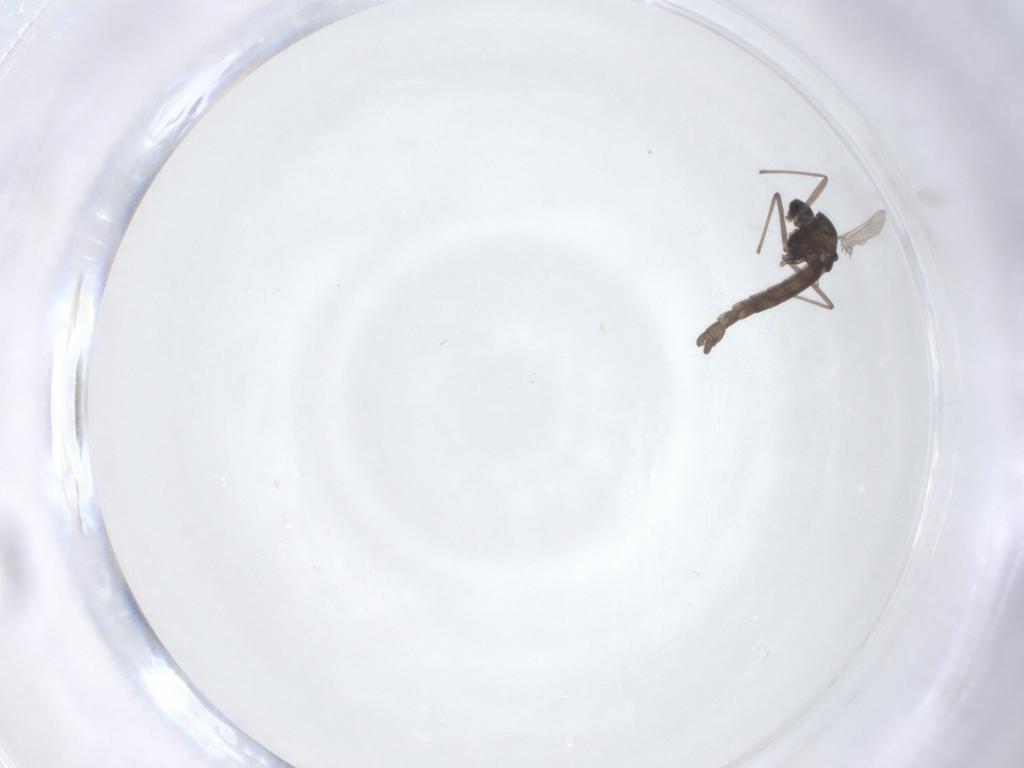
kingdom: Animalia
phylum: Arthropoda
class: Insecta
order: Diptera
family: Chironomidae
